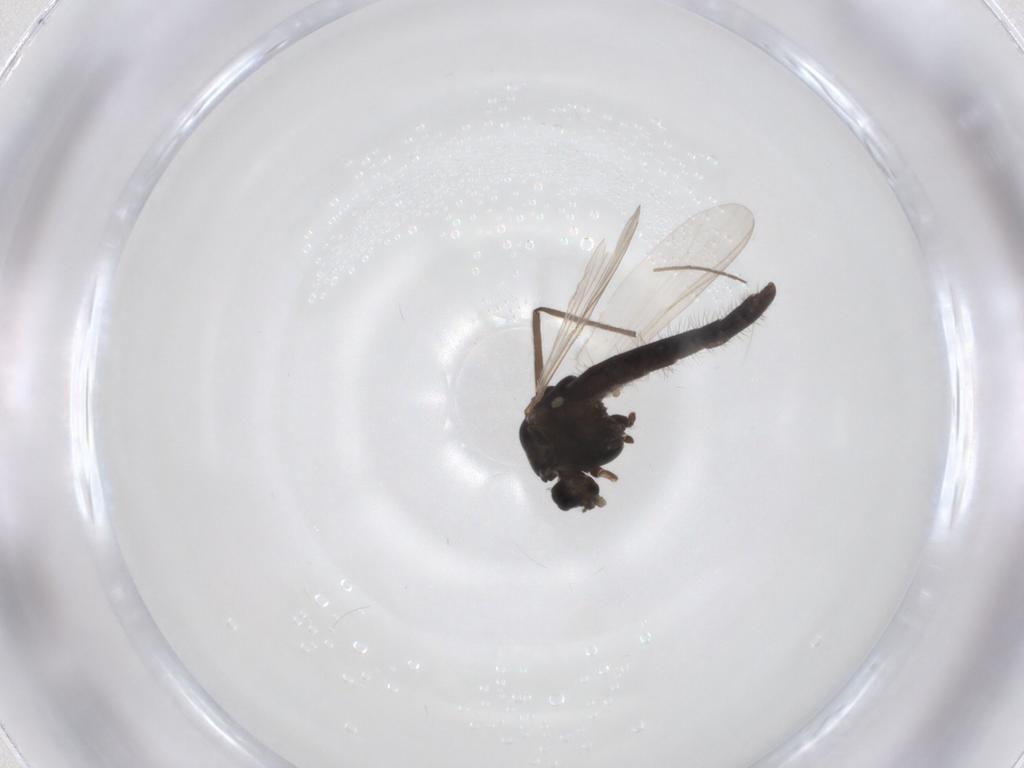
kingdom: Animalia
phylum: Arthropoda
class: Insecta
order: Diptera
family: Chironomidae
